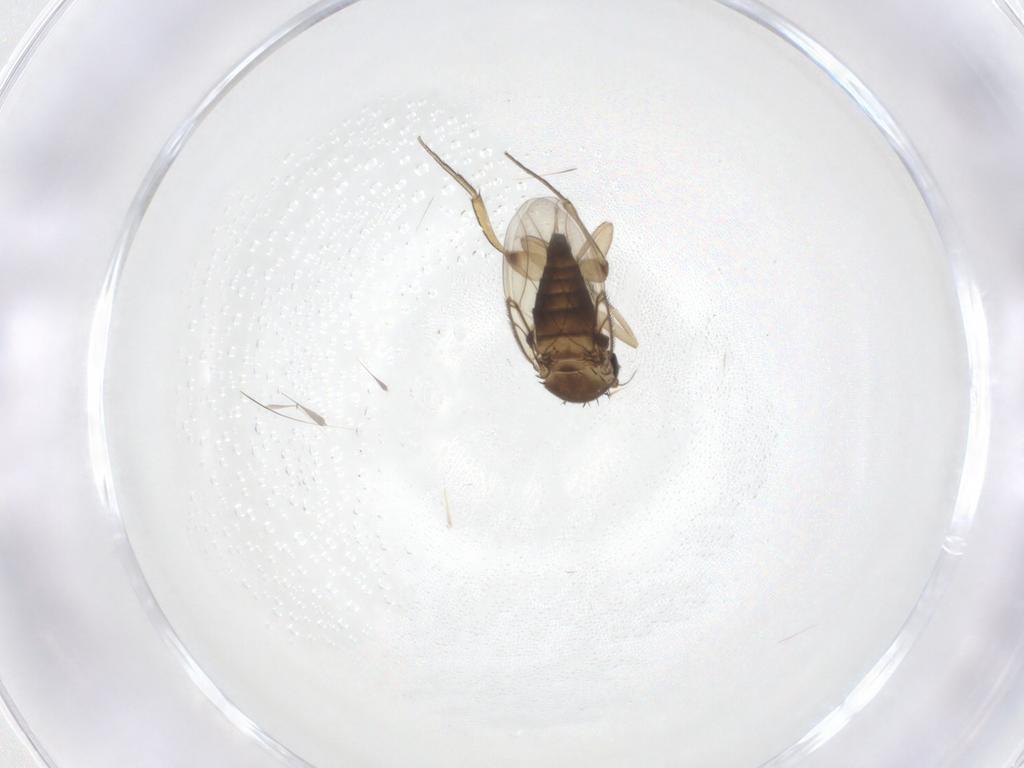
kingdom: Animalia
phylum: Arthropoda
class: Insecta
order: Diptera
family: Phoridae
